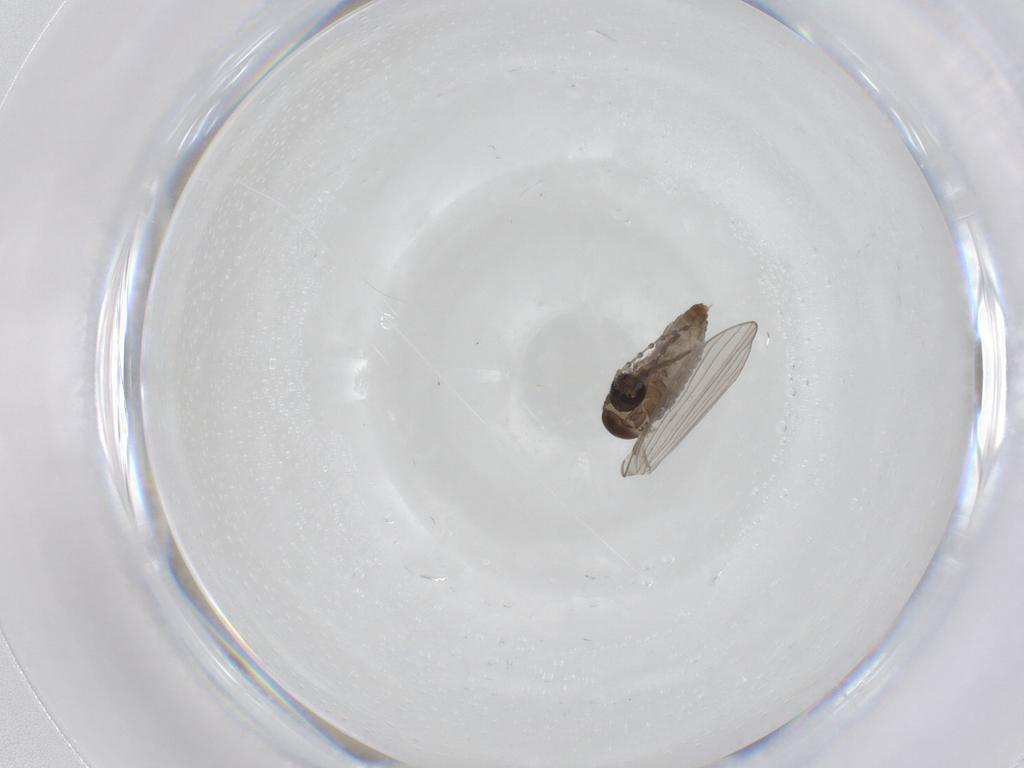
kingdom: Animalia
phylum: Arthropoda
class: Insecta
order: Diptera
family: Psychodidae
